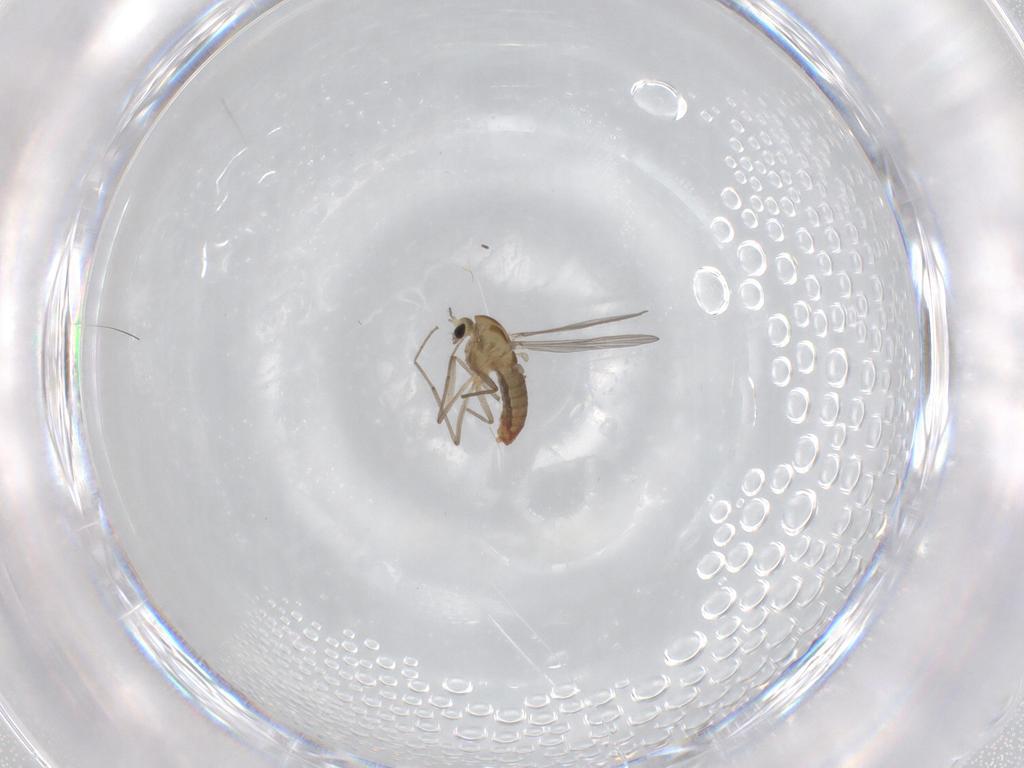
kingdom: Animalia
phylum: Arthropoda
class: Insecta
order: Diptera
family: Chironomidae
